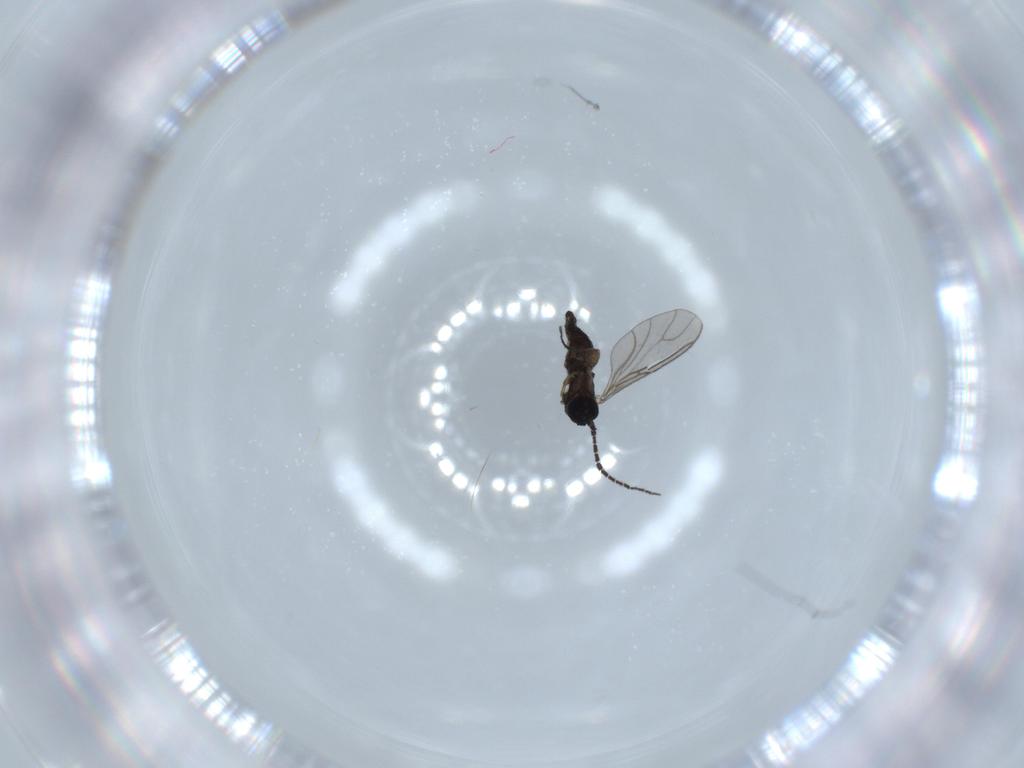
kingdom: Animalia
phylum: Arthropoda
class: Insecta
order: Diptera
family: Sciaridae
